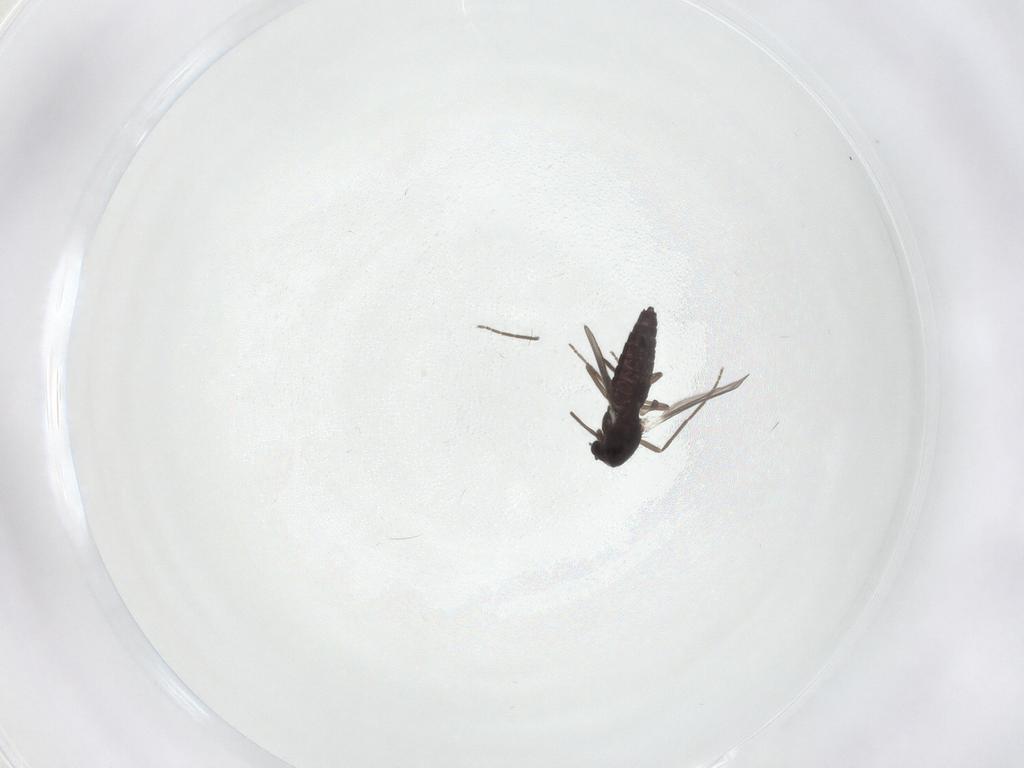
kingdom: Animalia
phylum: Arthropoda
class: Insecta
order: Diptera
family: Chironomidae
